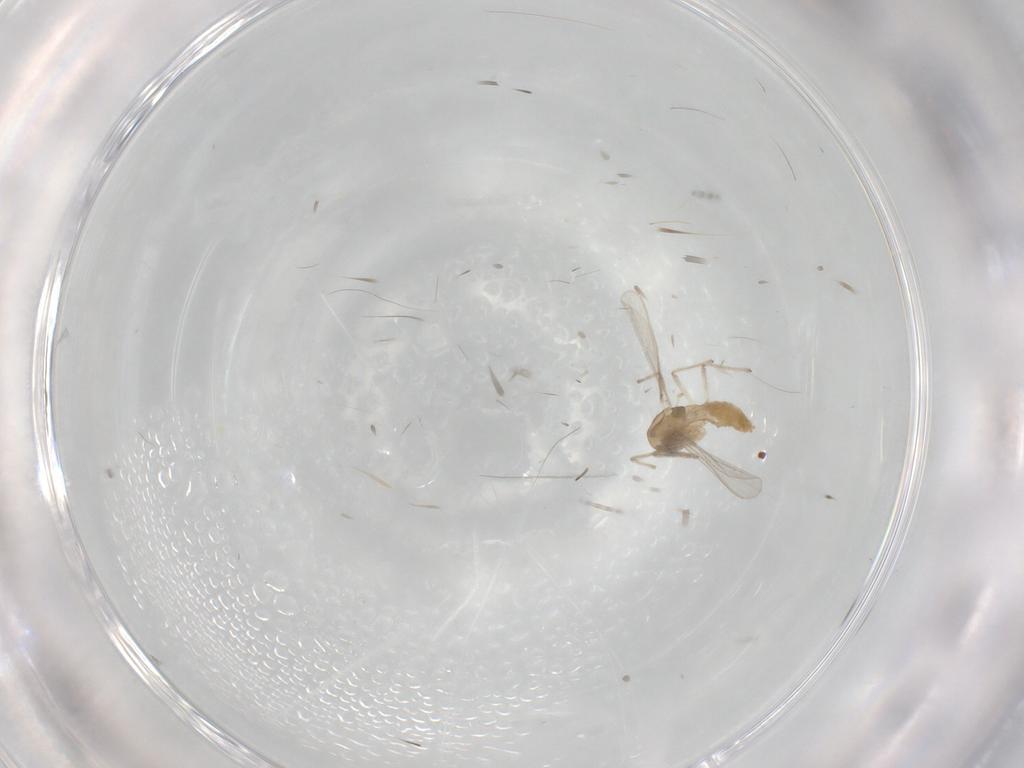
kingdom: Animalia
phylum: Arthropoda
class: Insecta
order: Diptera
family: Chironomidae
